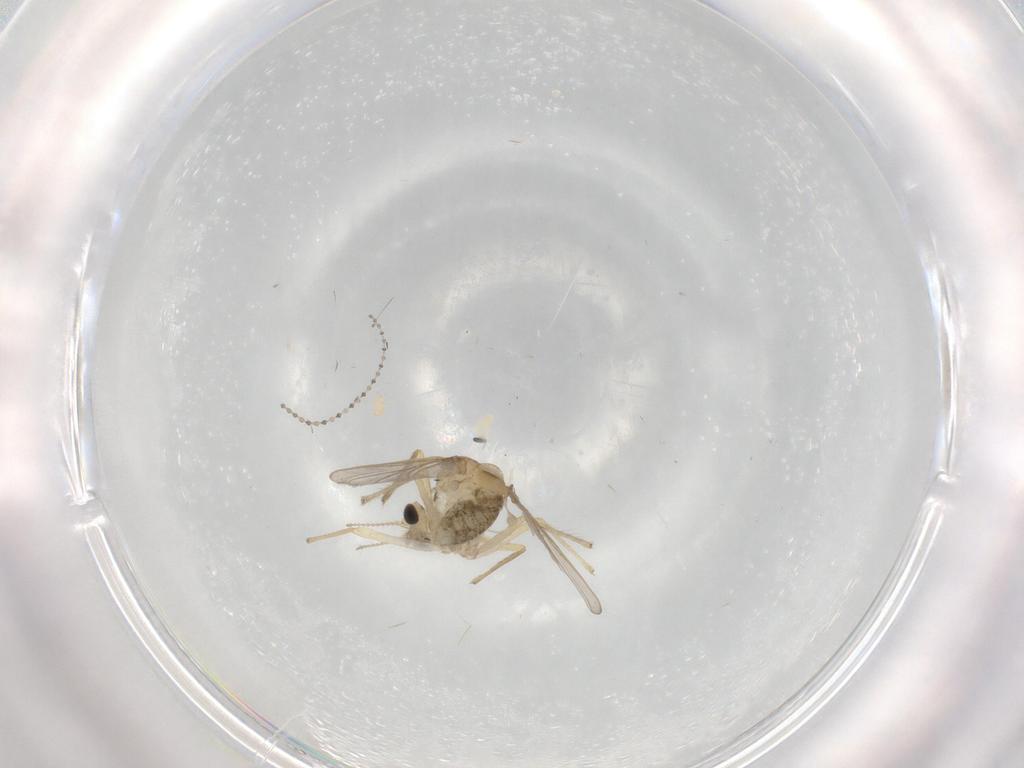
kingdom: Animalia
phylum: Arthropoda
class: Insecta
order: Diptera
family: Chironomidae
